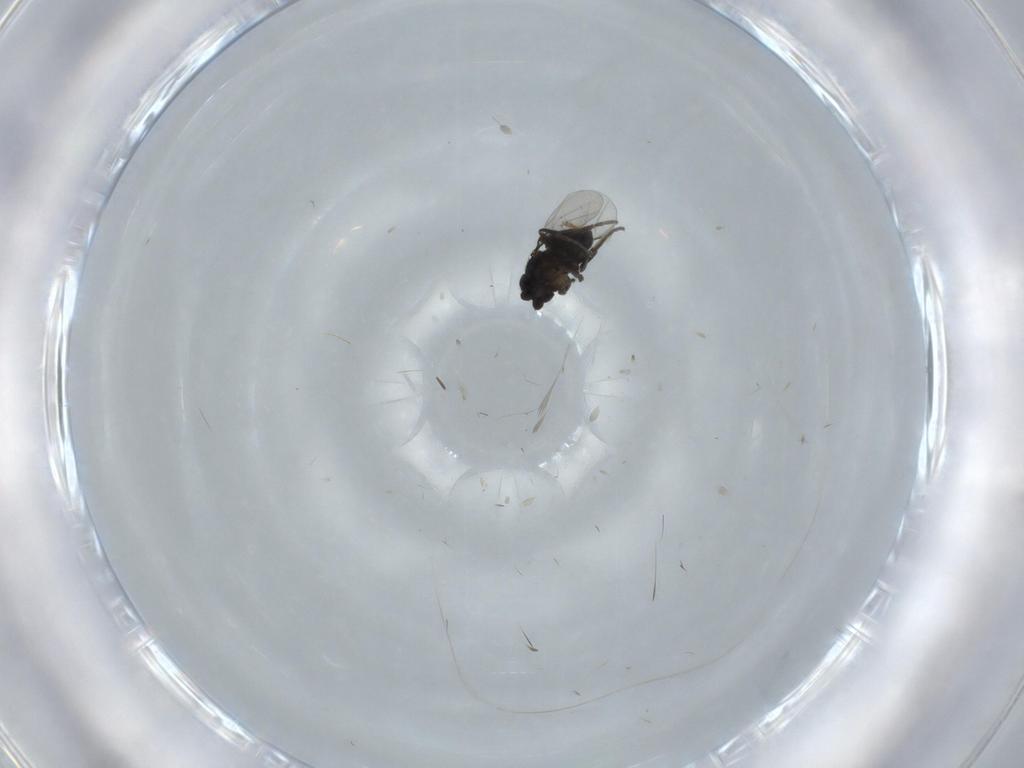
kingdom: Animalia
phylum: Arthropoda
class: Insecta
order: Diptera
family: Phoridae
